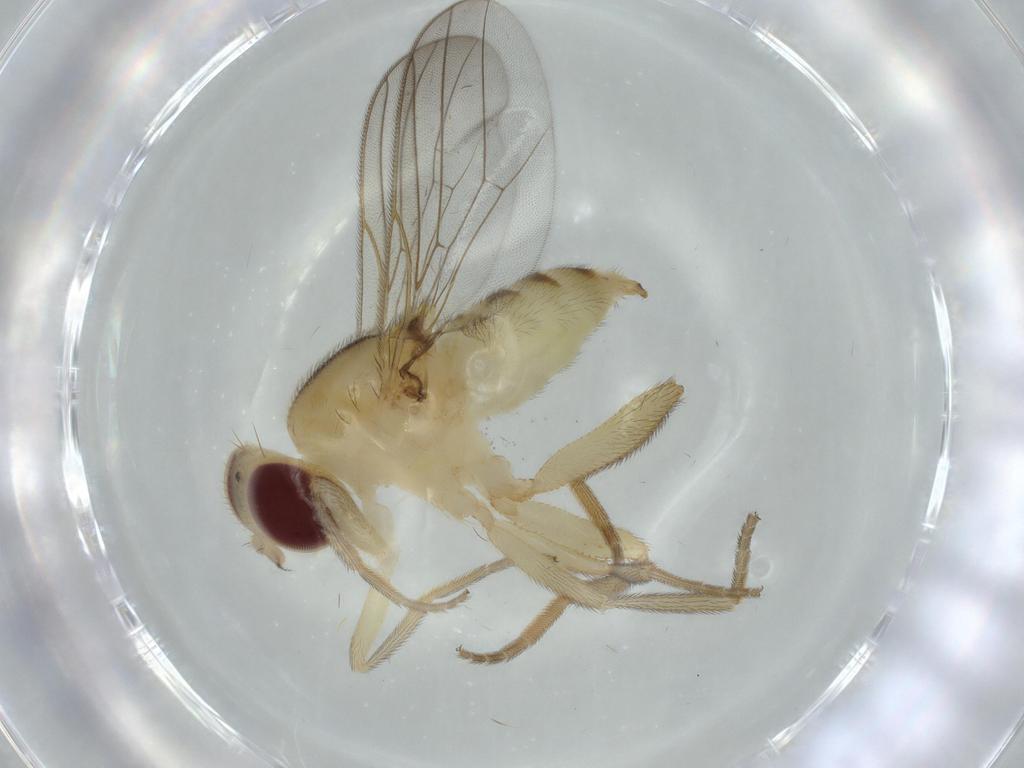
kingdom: Animalia
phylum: Arthropoda
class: Insecta
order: Diptera
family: Chloropidae
